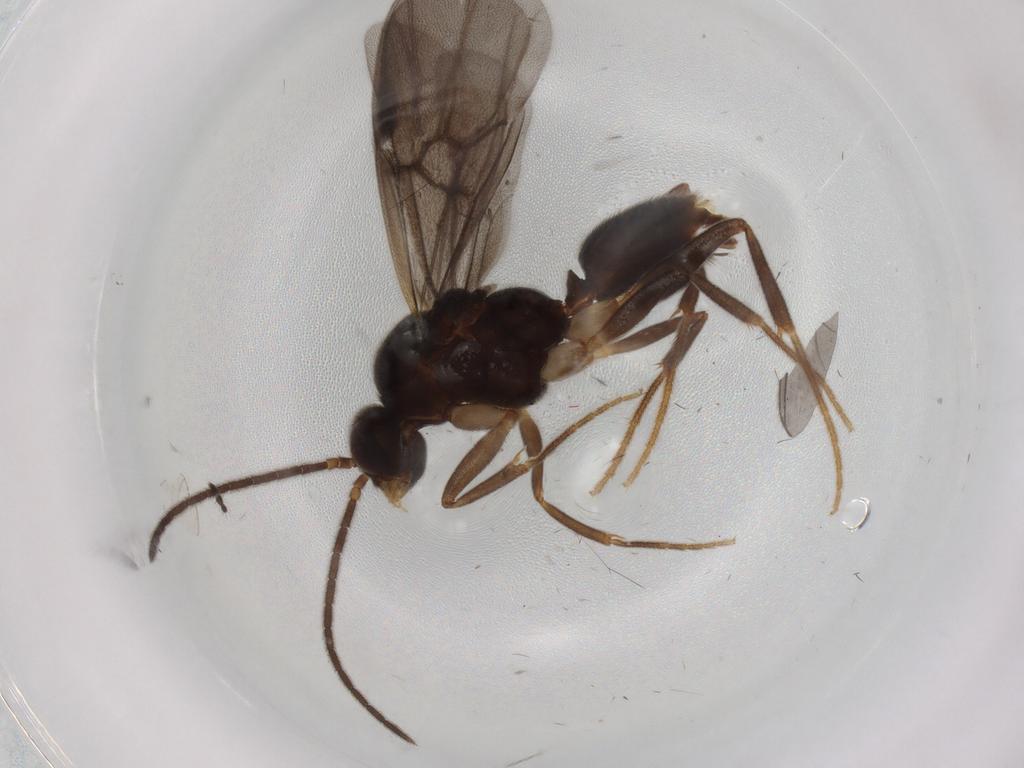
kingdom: Animalia
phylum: Arthropoda
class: Insecta
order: Hymenoptera
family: Formicidae
